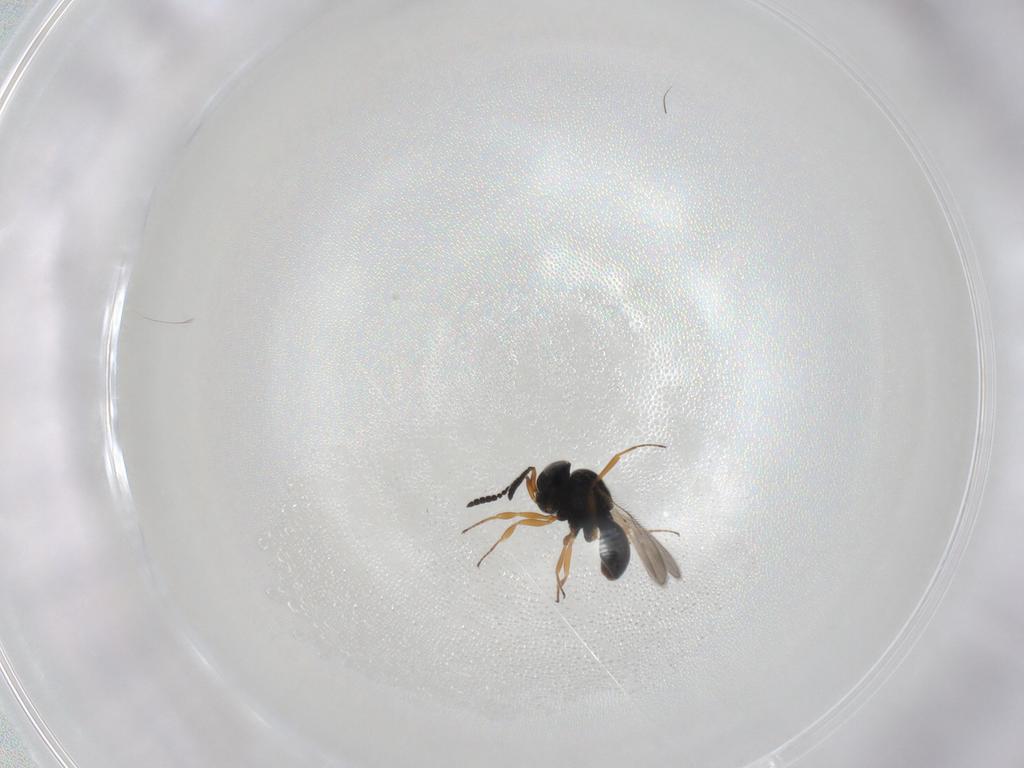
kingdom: Animalia
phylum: Arthropoda
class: Insecta
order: Hymenoptera
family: Scelionidae
